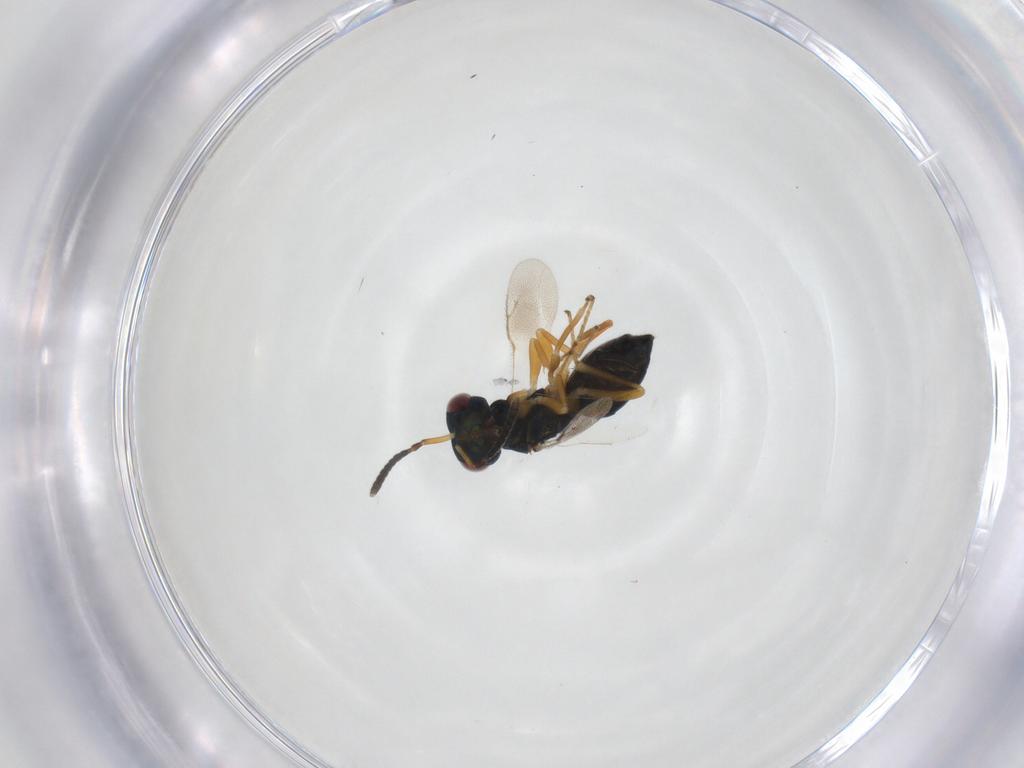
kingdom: Animalia
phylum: Arthropoda
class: Insecta
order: Hymenoptera
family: Pteromalidae
